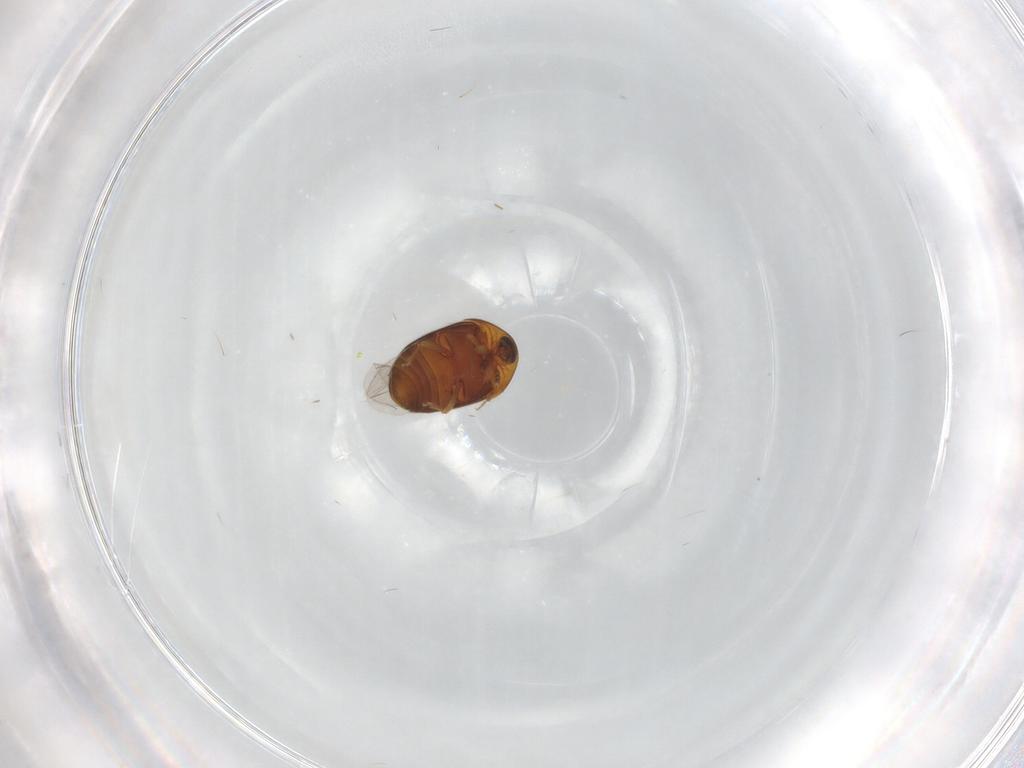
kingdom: Animalia
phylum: Arthropoda
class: Insecta
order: Coleoptera
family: Corylophidae
